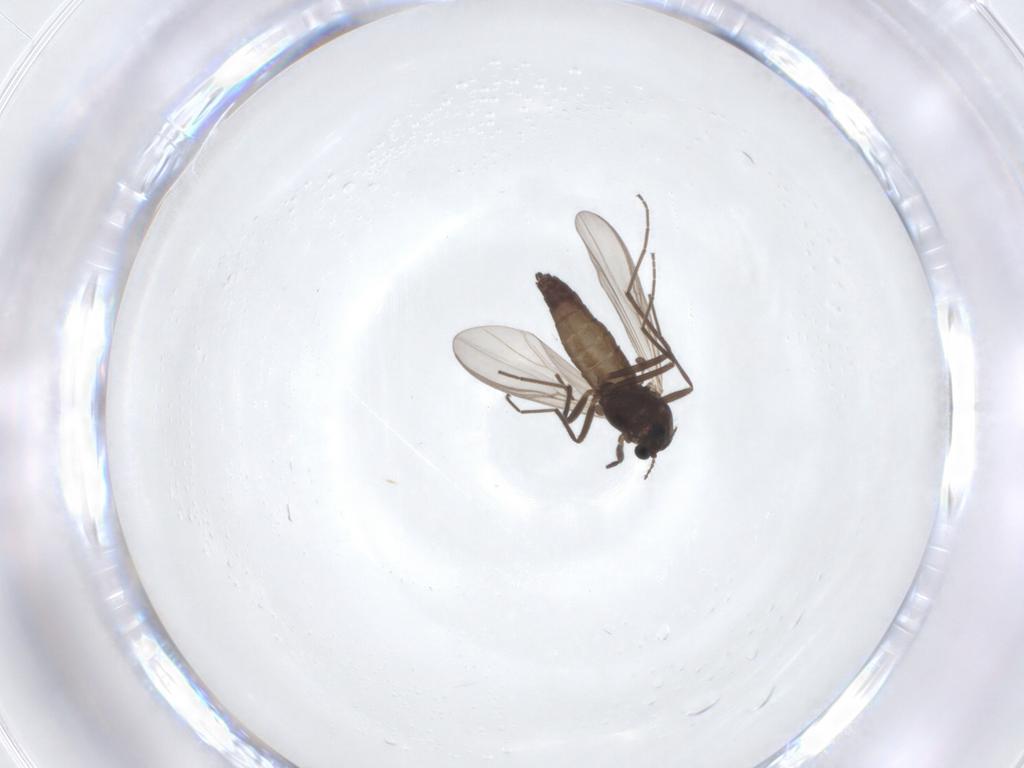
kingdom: Animalia
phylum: Arthropoda
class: Insecta
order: Diptera
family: Chironomidae
